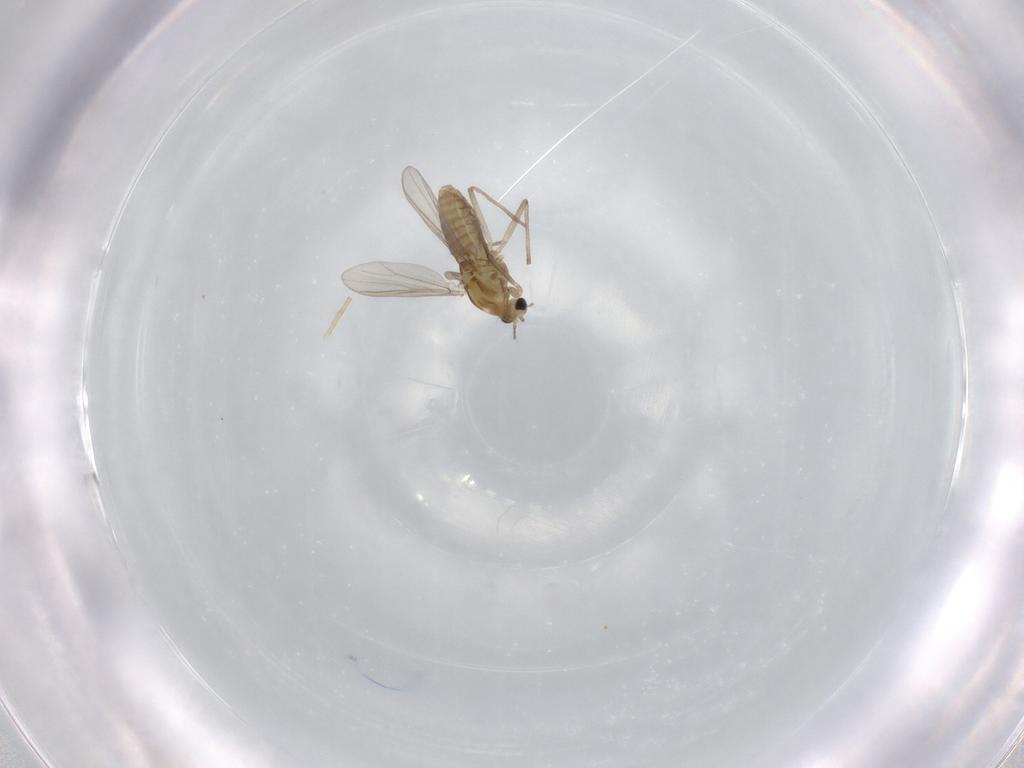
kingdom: Animalia
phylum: Arthropoda
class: Insecta
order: Diptera
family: Chironomidae
